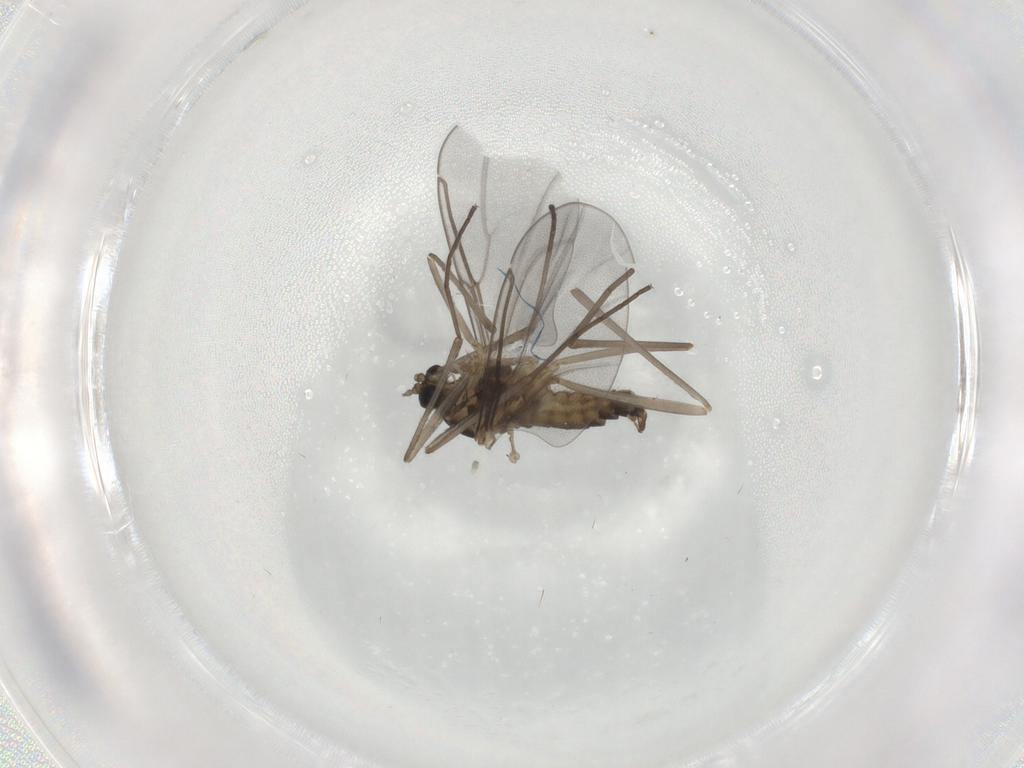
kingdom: Animalia
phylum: Arthropoda
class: Insecta
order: Diptera
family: Cecidomyiidae
